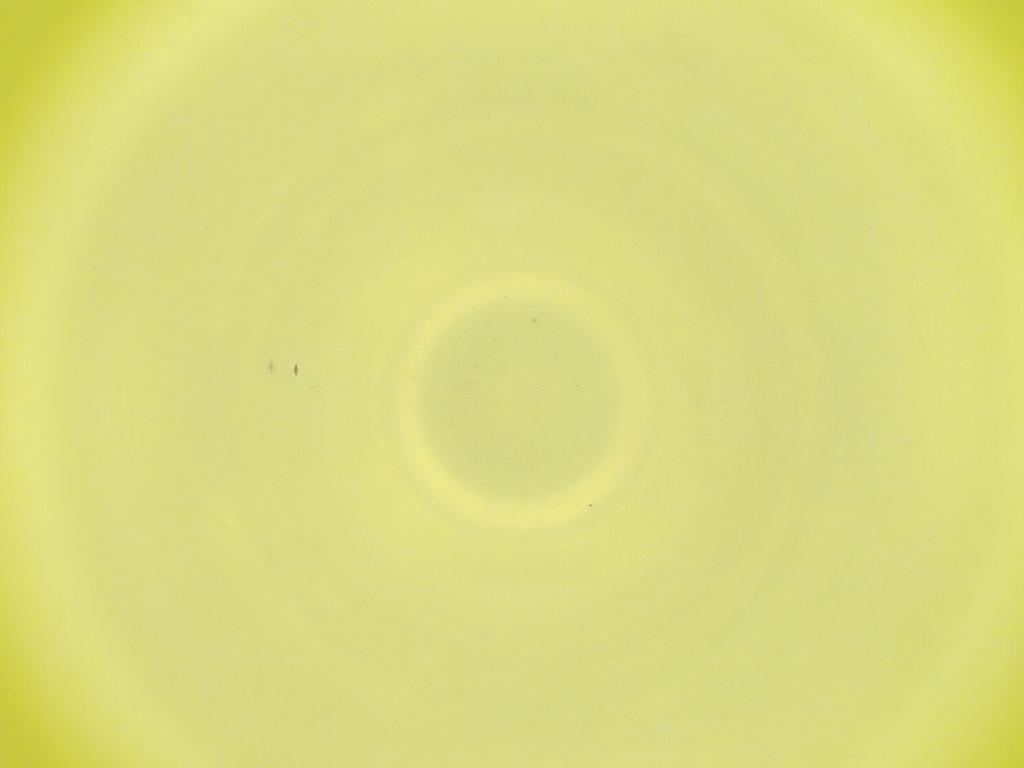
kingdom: Animalia
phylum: Arthropoda
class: Insecta
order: Diptera
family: Cecidomyiidae
